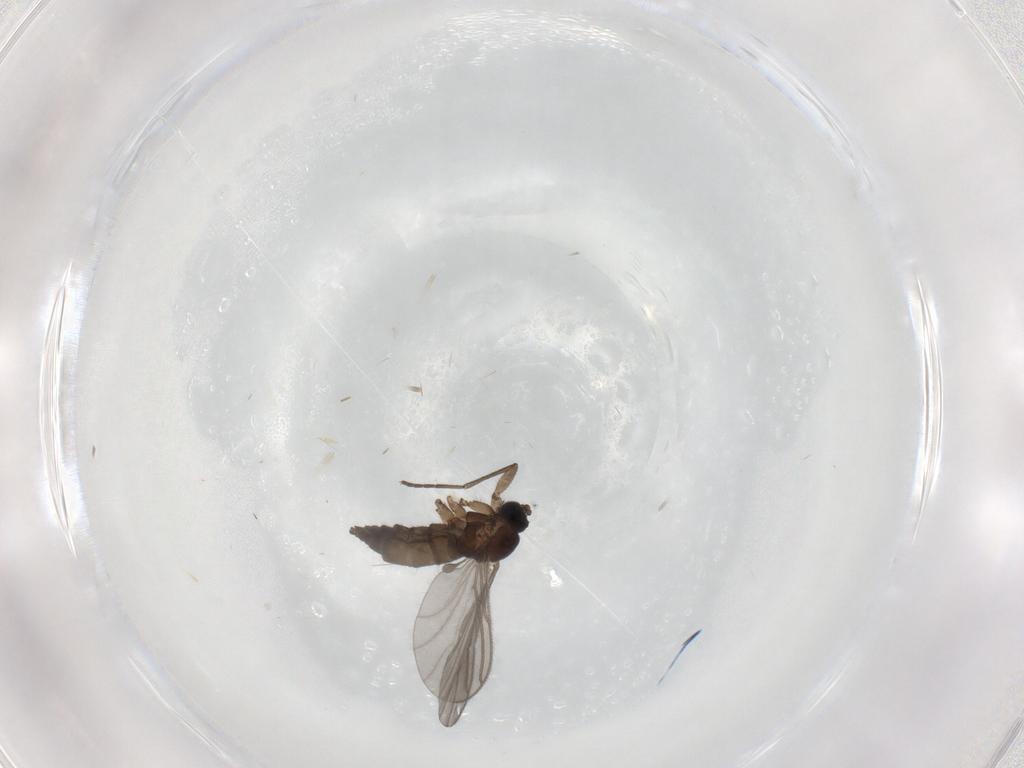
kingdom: Animalia
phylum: Arthropoda
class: Insecta
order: Diptera
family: Sciaridae
